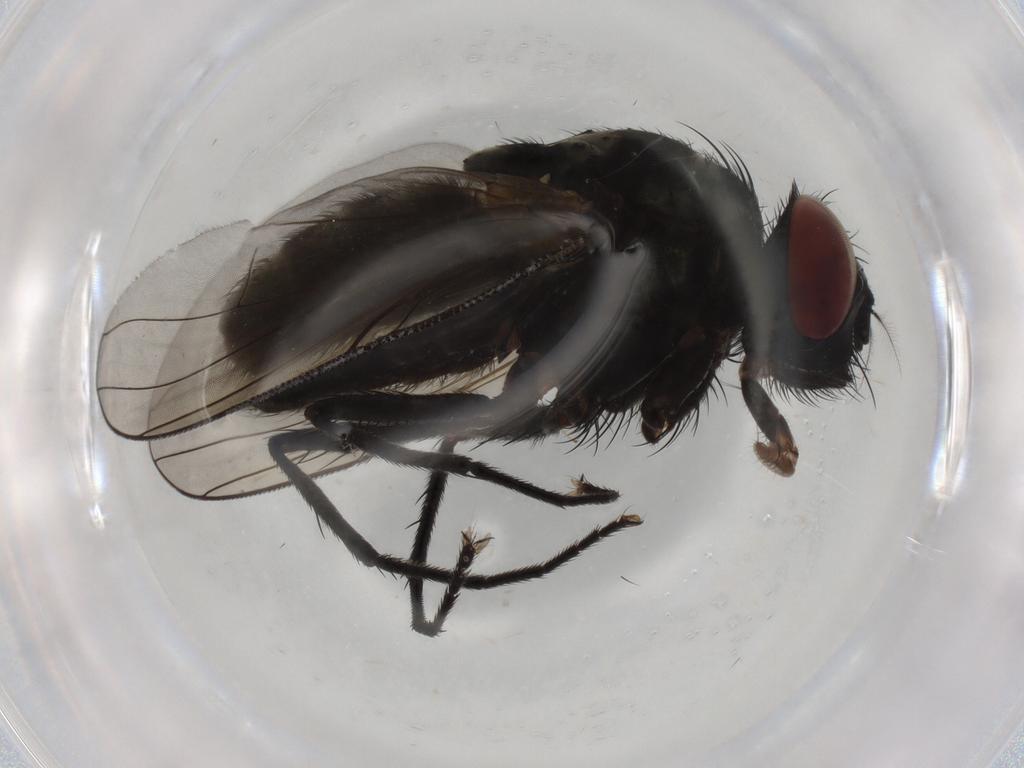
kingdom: Animalia
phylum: Arthropoda
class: Insecta
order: Diptera
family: Muscidae
